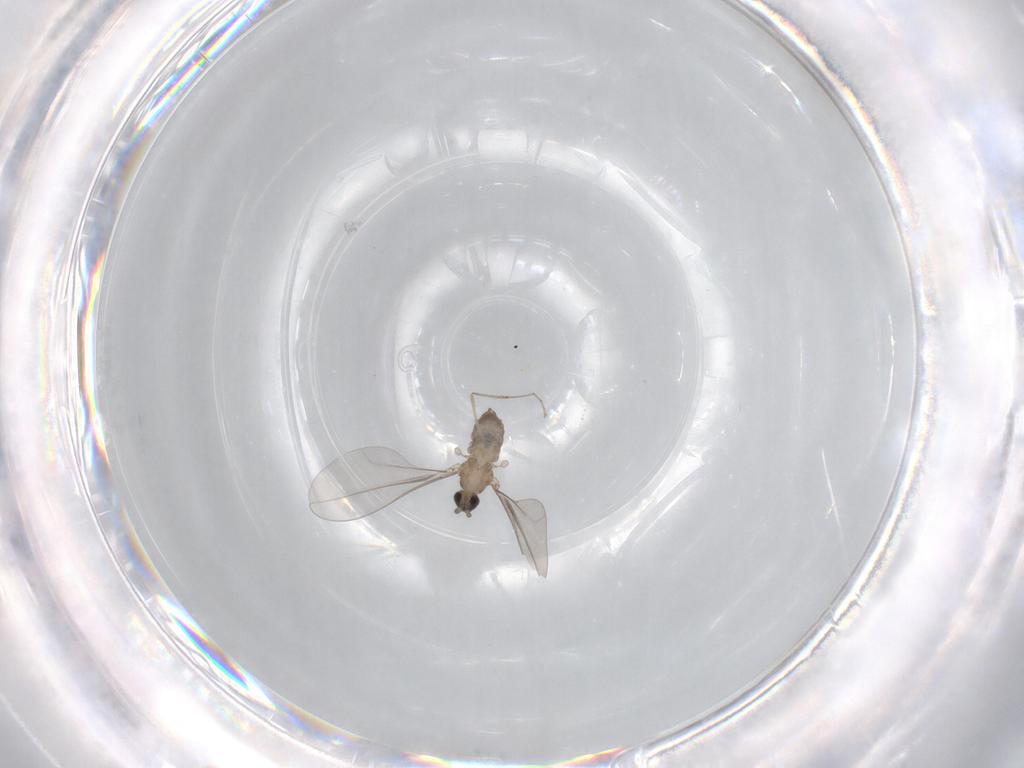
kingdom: Animalia
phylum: Arthropoda
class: Insecta
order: Diptera
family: Cecidomyiidae
